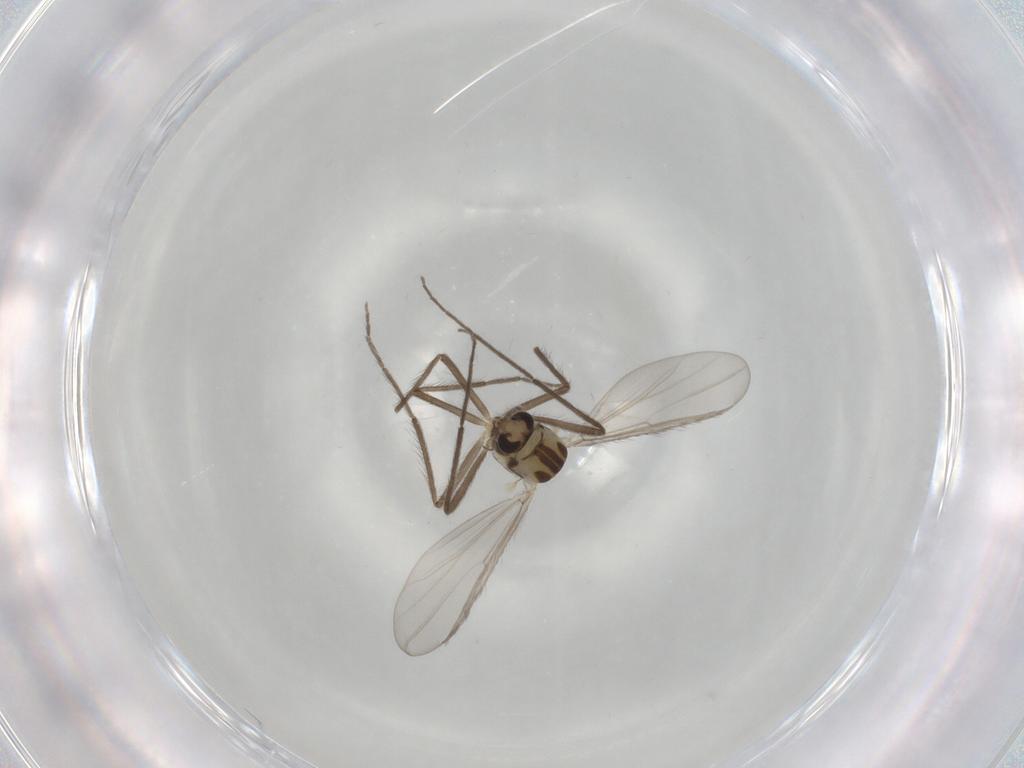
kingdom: Animalia
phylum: Arthropoda
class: Insecta
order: Diptera
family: Chironomidae
